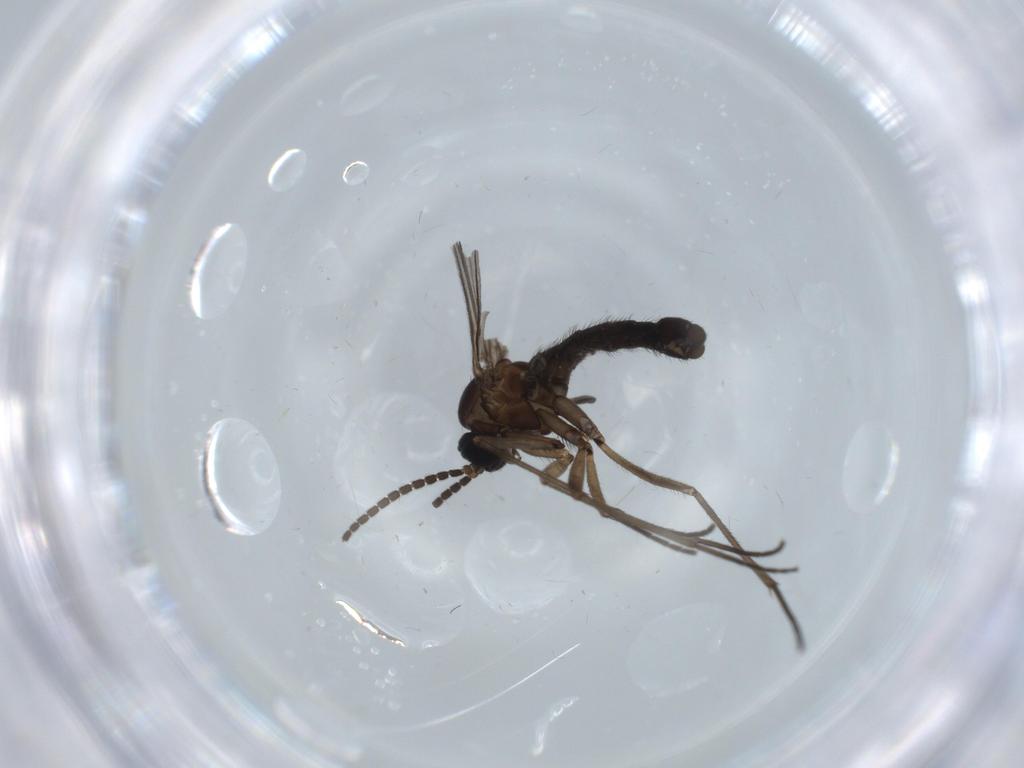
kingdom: Animalia
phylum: Arthropoda
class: Insecta
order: Diptera
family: Sciaridae
